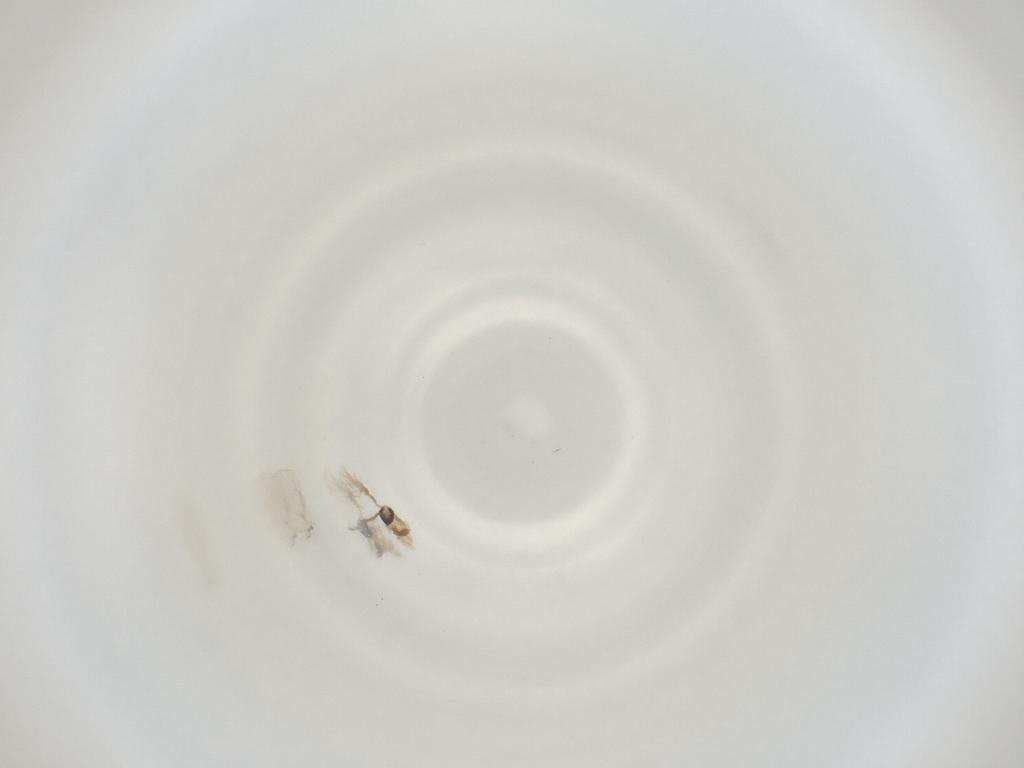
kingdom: Animalia
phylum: Arthropoda
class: Insecta
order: Diptera
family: Cecidomyiidae
